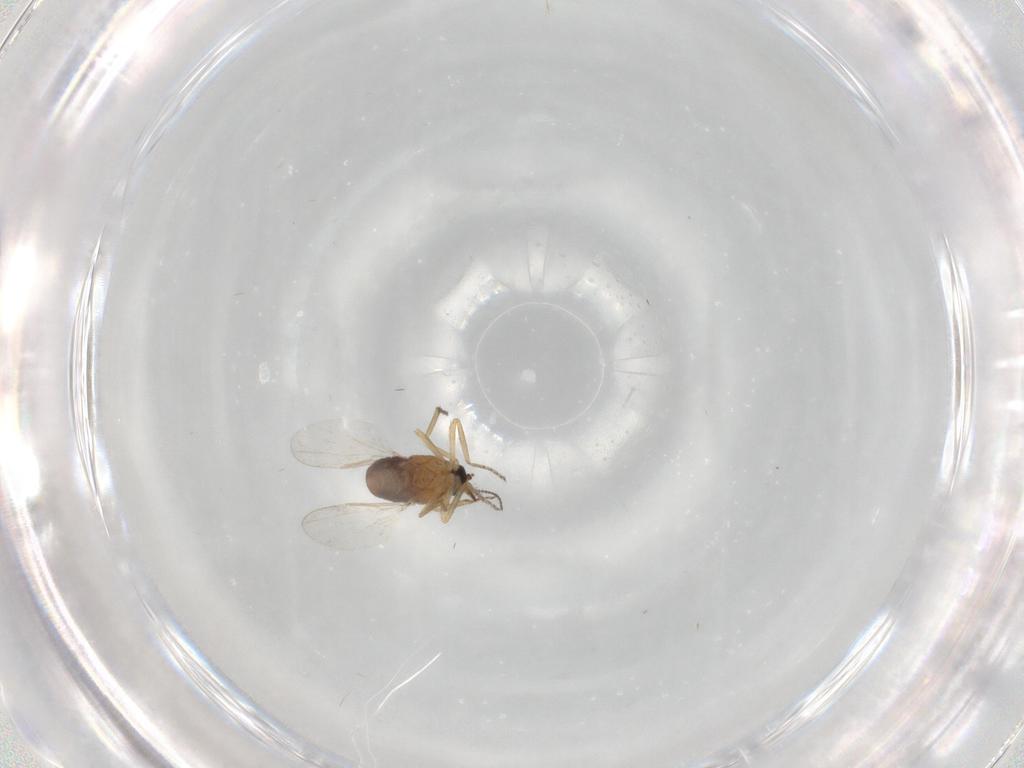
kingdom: Animalia
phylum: Arthropoda
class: Insecta
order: Diptera
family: Ceratopogonidae
